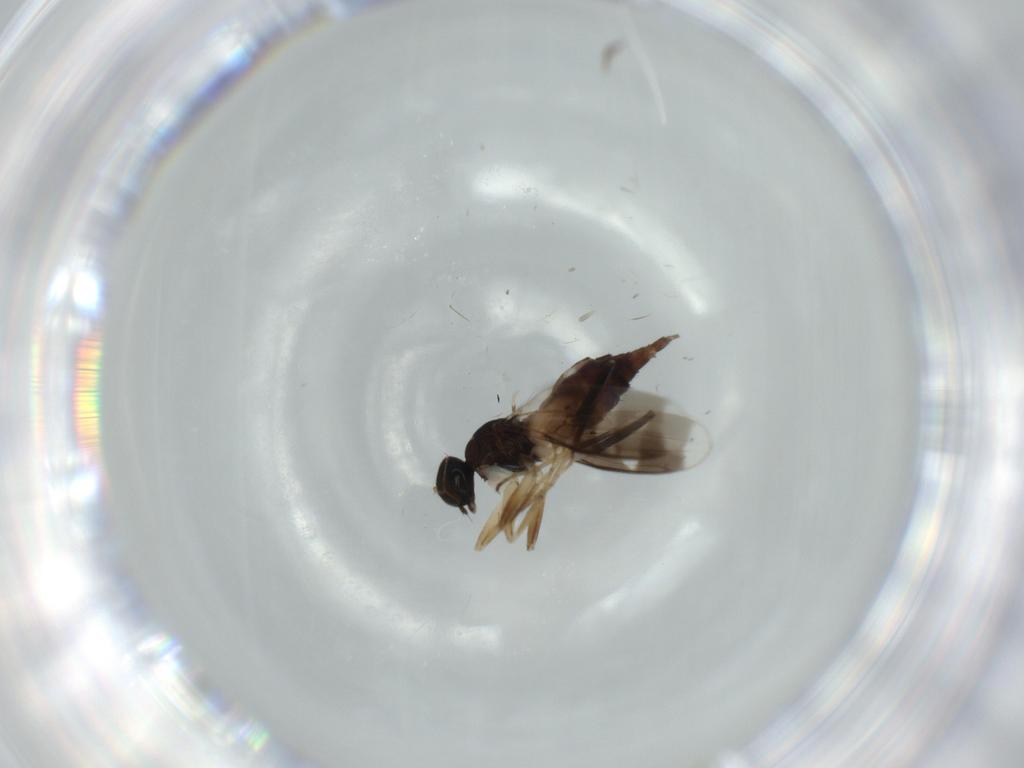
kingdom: Animalia
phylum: Arthropoda
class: Insecta
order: Diptera
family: Hybotidae
